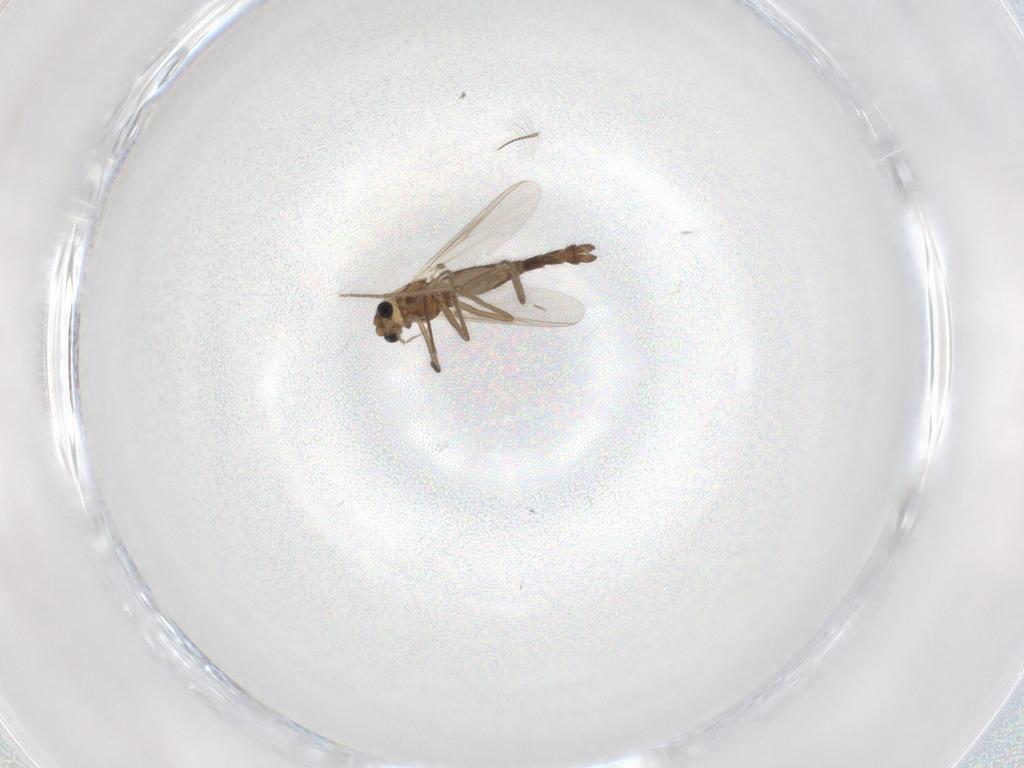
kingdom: Animalia
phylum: Arthropoda
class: Insecta
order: Diptera
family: Chironomidae
